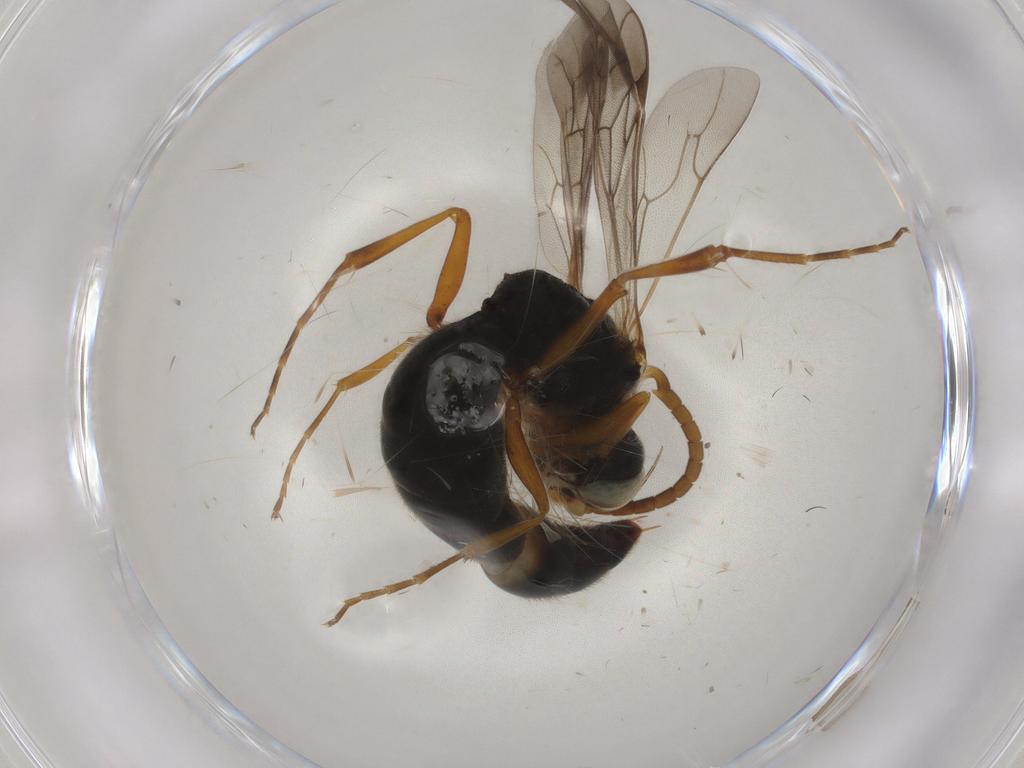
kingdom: Animalia
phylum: Arthropoda
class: Insecta
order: Hymenoptera
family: Crabronidae
